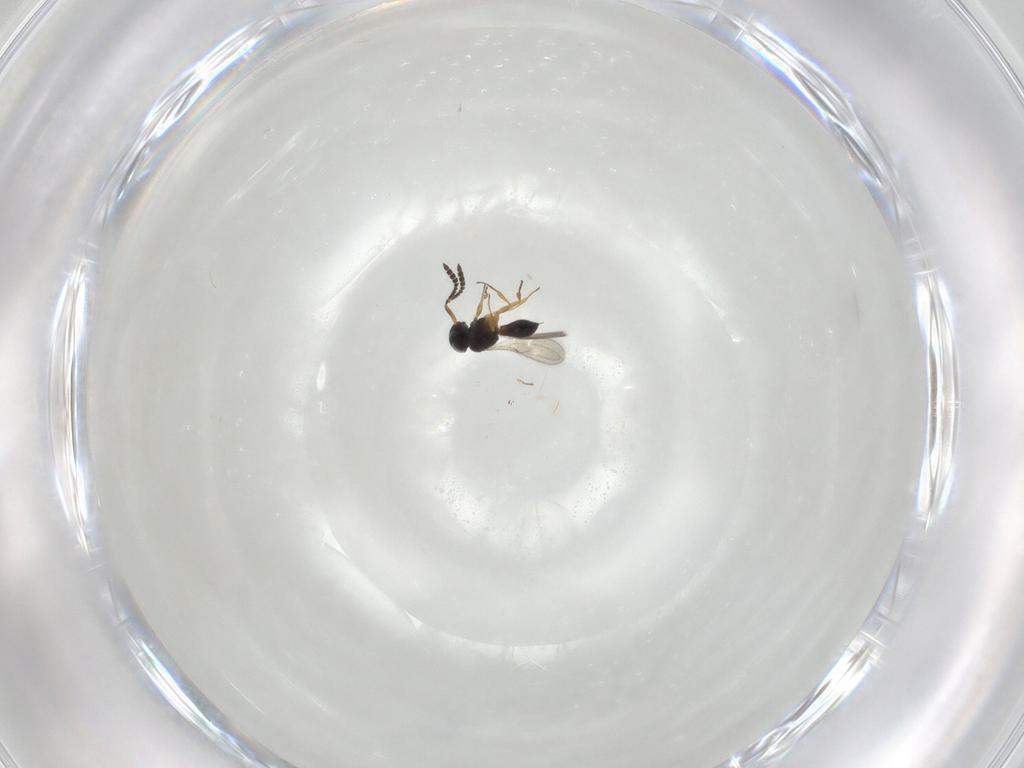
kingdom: Animalia
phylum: Arthropoda
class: Insecta
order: Hymenoptera
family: Scelionidae
